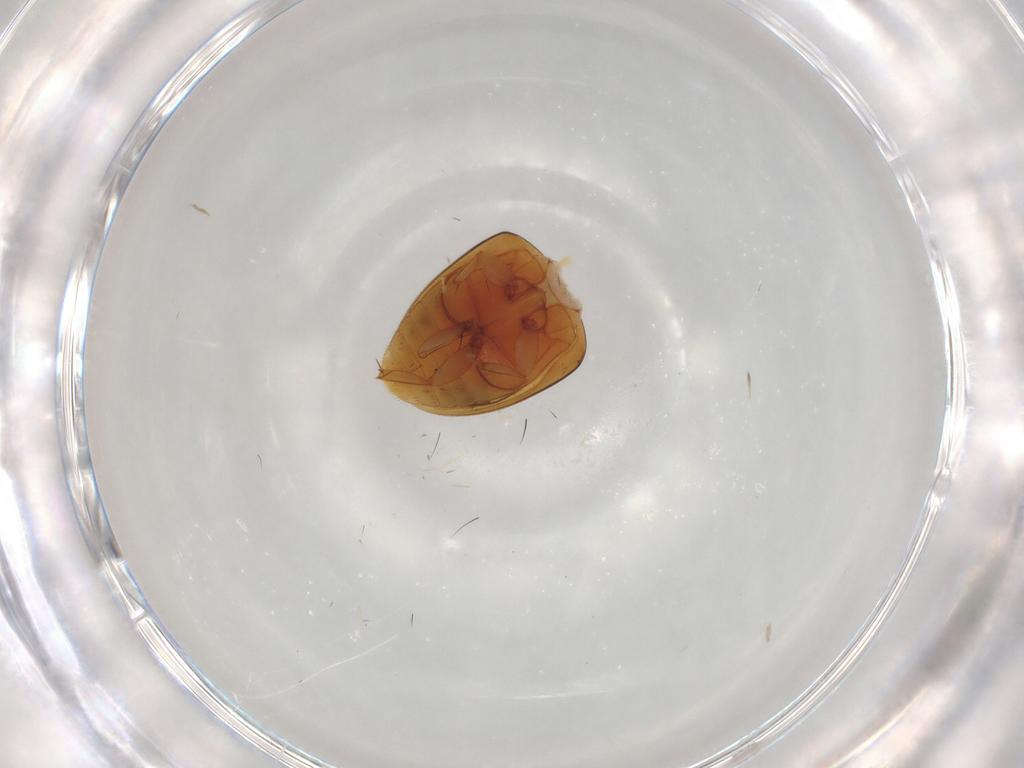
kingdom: Animalia
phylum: Arthropoda
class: Insecta
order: Coleoptera
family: Phalacridae
